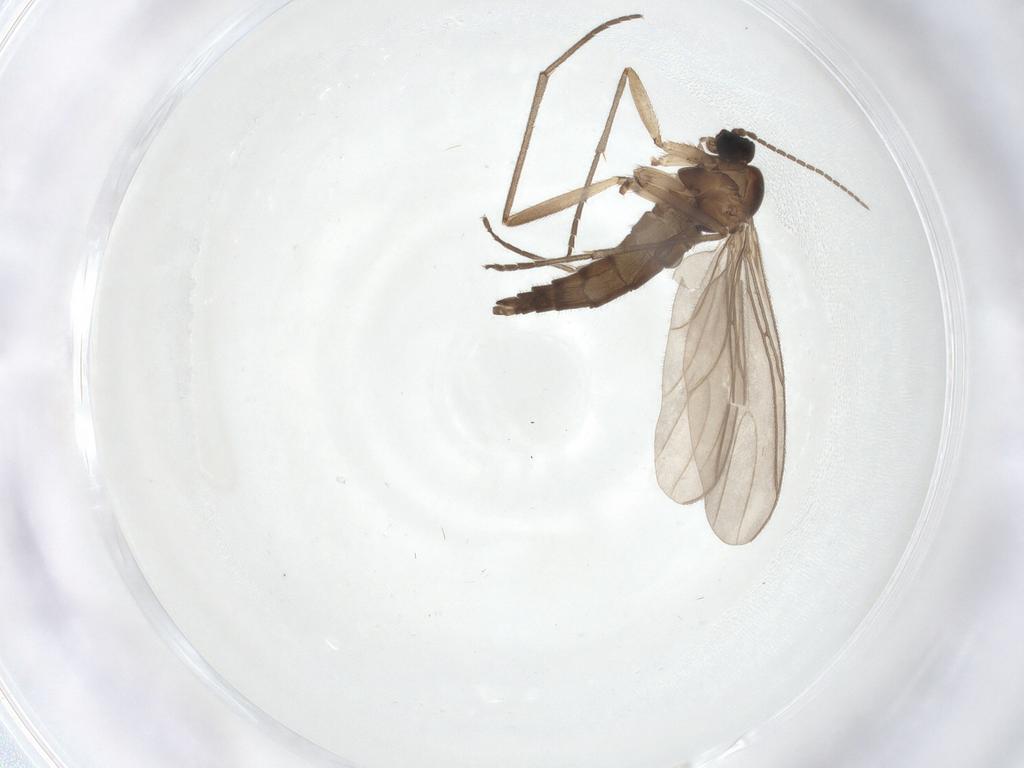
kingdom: Animalia
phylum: Arthropoda
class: Insecta
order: Diptera
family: Sciaridae
